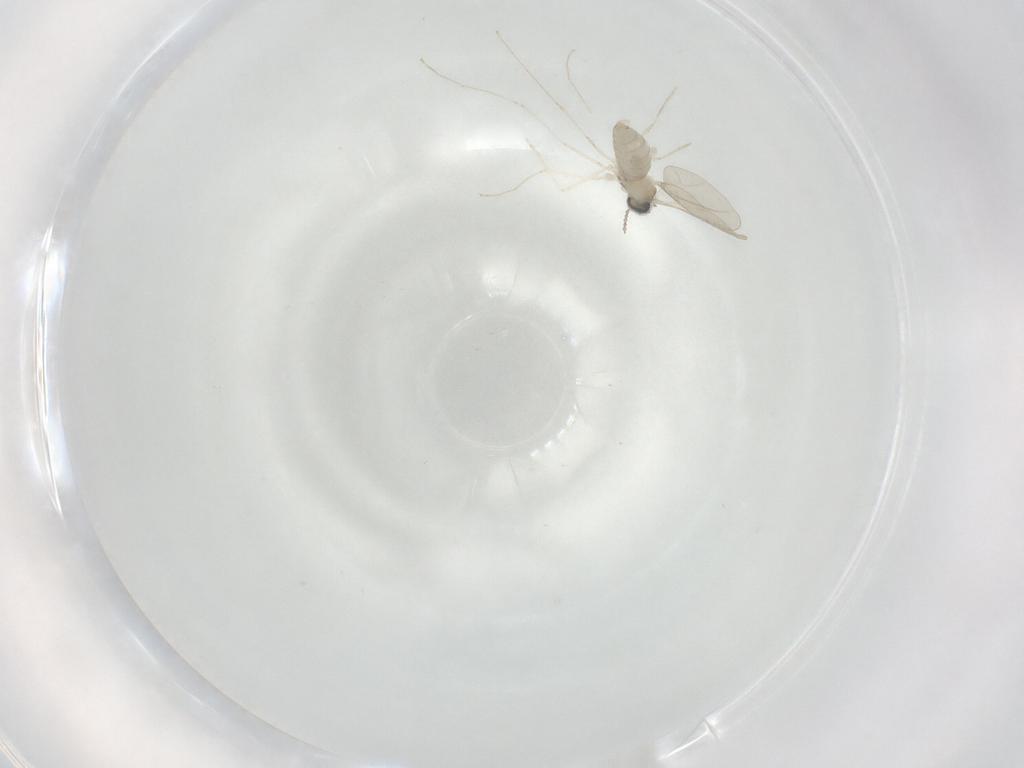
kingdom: Animalia
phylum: Arthropoda
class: Insecta
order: Diptera
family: Cecidomyiidae
